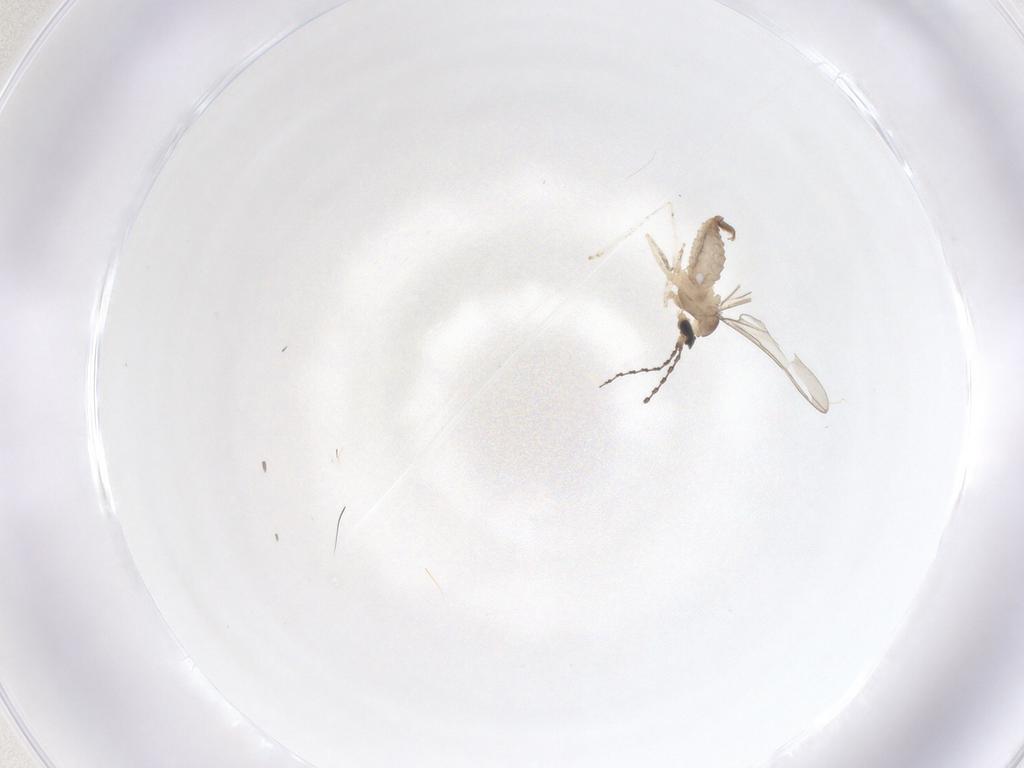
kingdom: Animalia
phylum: Arthropoda
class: Insecta
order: Diptera
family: Cecidomyiidae
